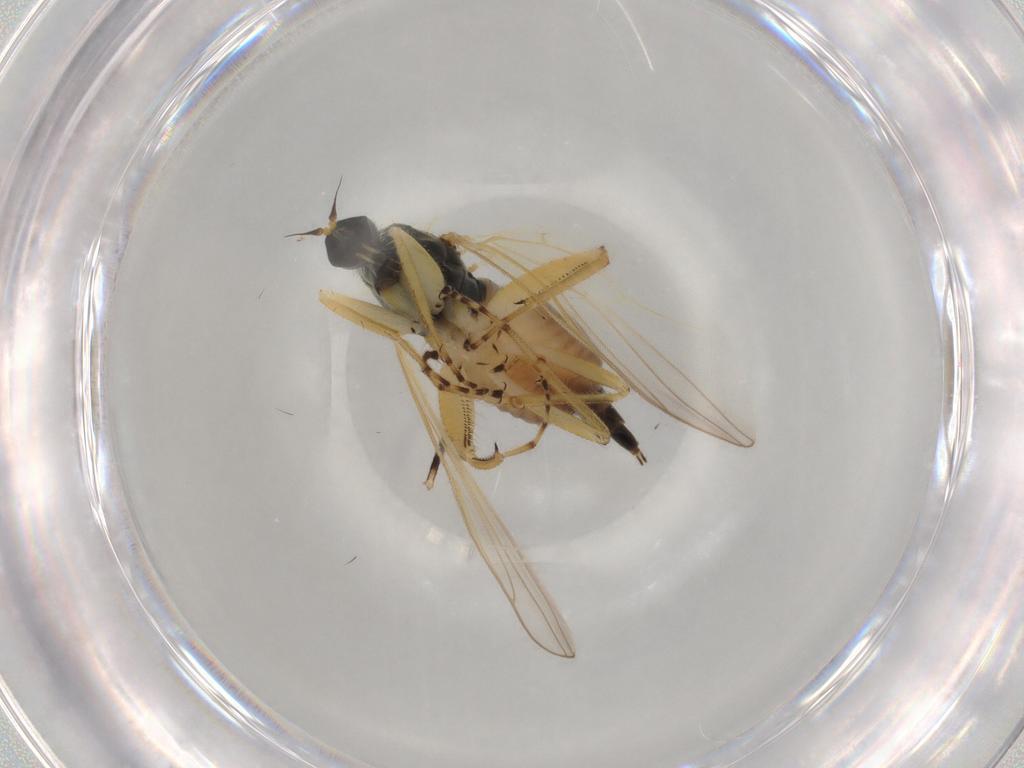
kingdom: Animalia
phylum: Arthropoda
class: Insecta
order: Diptera
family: Hybotidae
